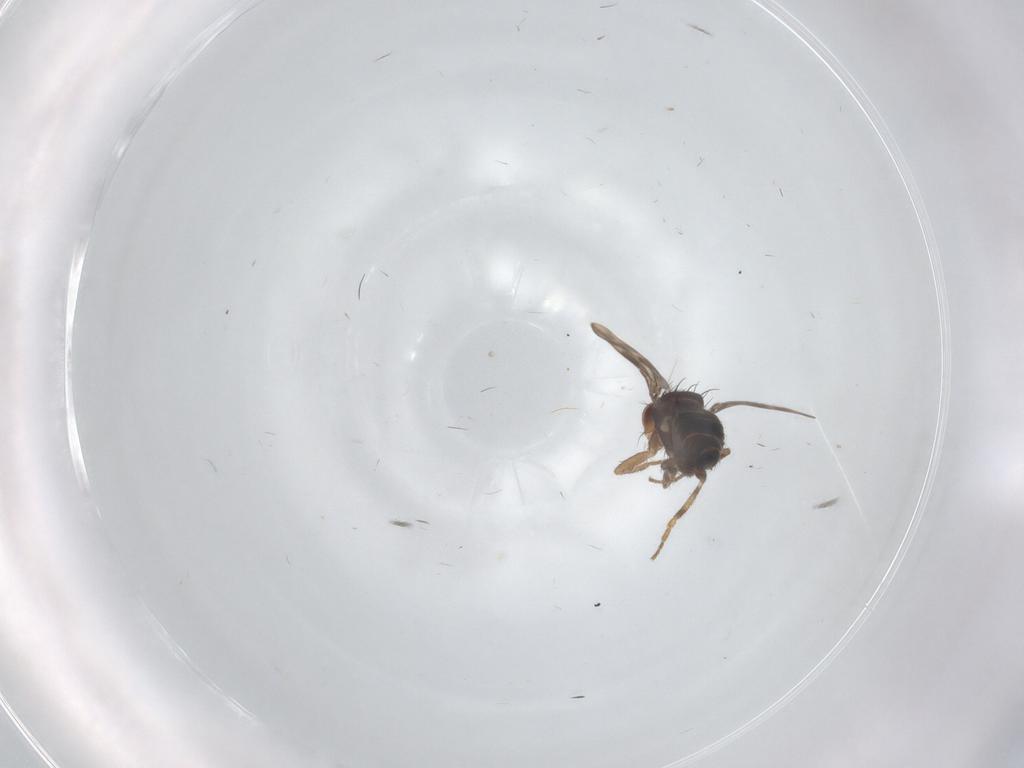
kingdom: Animalia
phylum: Arthropoda
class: Insecta
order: Diptera
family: Sphaeroceridae
